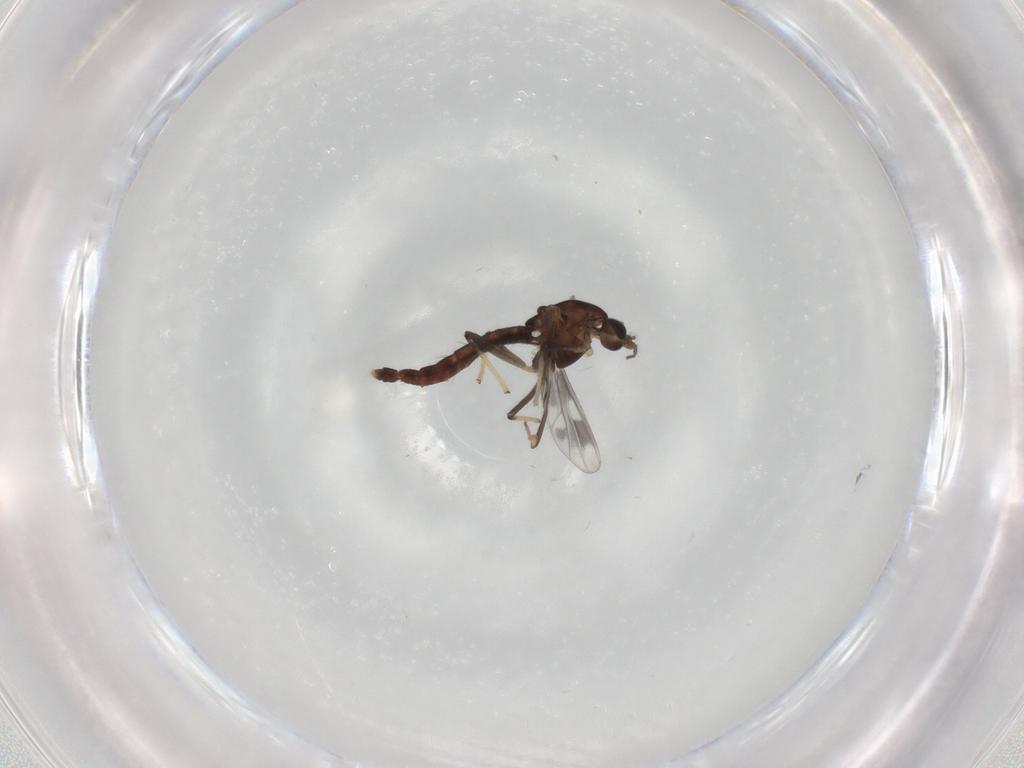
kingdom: Animalia
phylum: Arthropoda
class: Insecta
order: Diptera
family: Chironomidae
